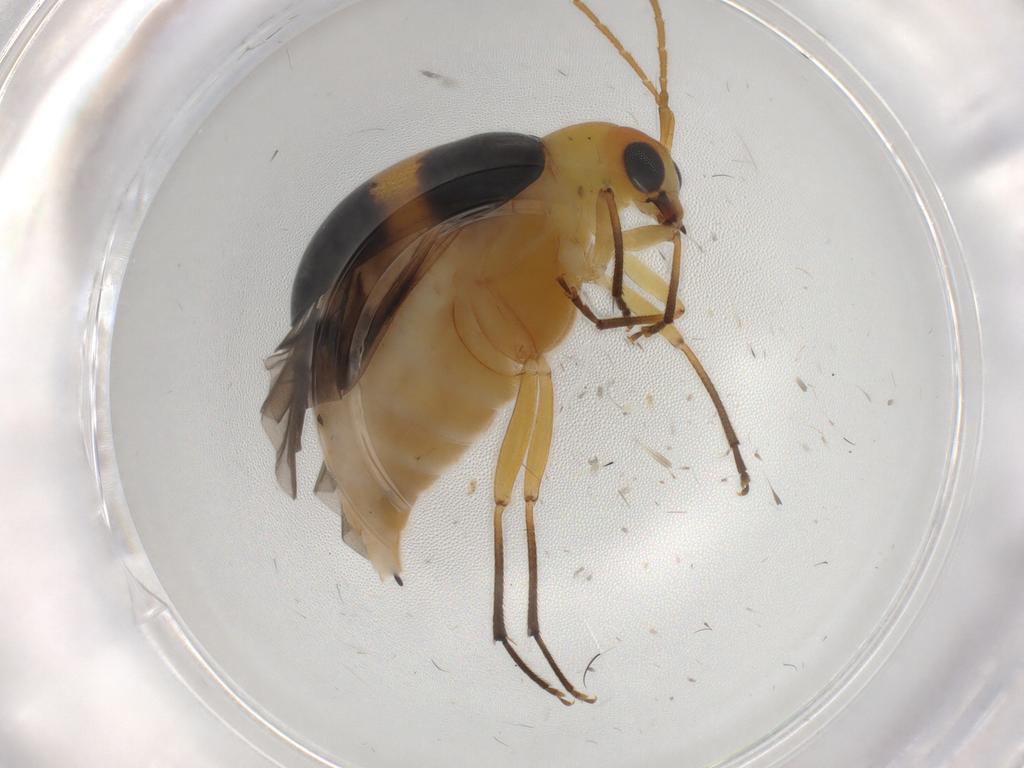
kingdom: Animalia
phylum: Arthropoda
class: Insecta
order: Coleoptera
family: Chrysomelidae
